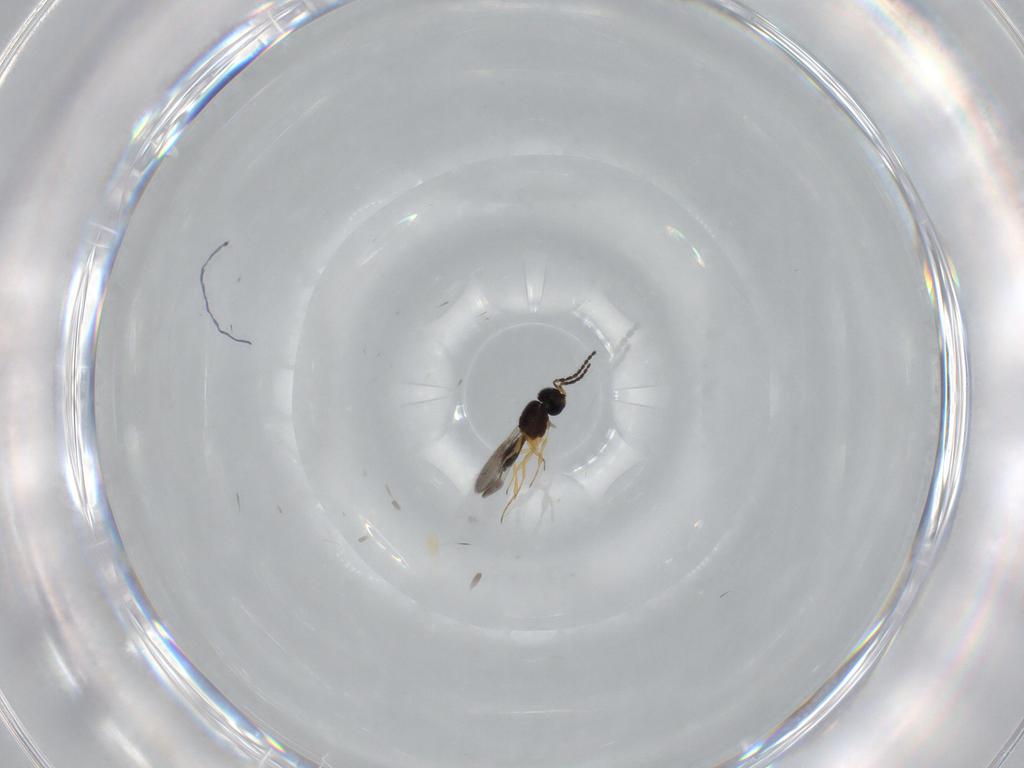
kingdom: Animalia
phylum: Arthropoda
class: Insecta
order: Hymenoptera
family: Scelionidae
